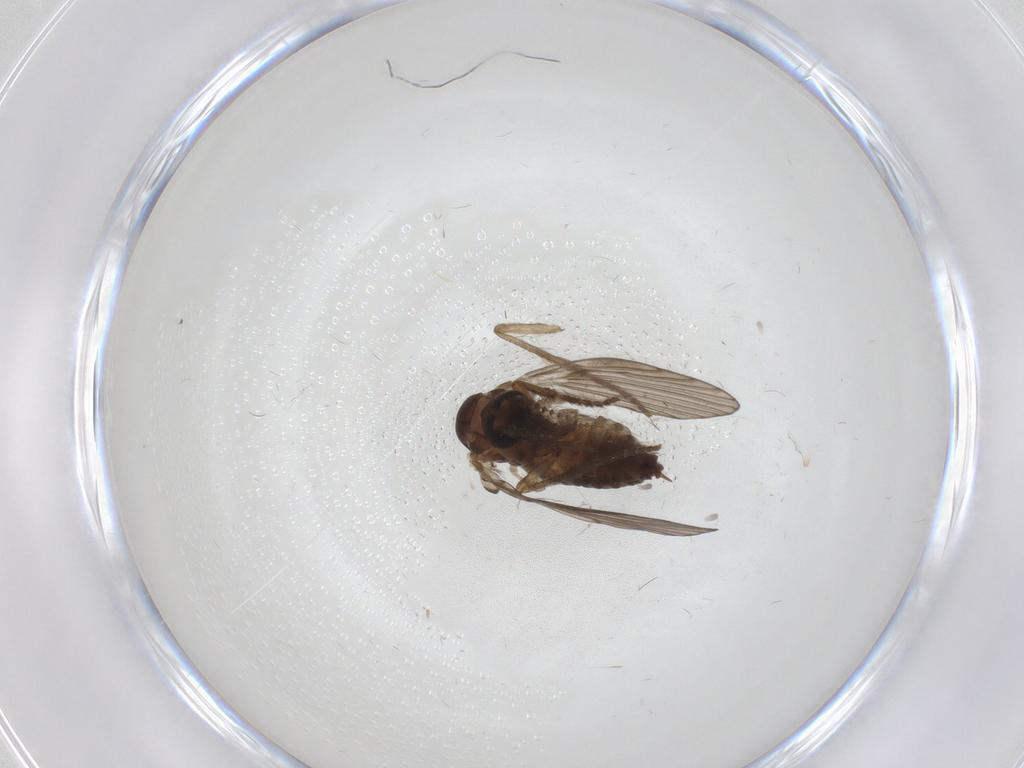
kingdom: Animalia
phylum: Arthropoda
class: Insecta
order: Diptera
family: Psychodidae
